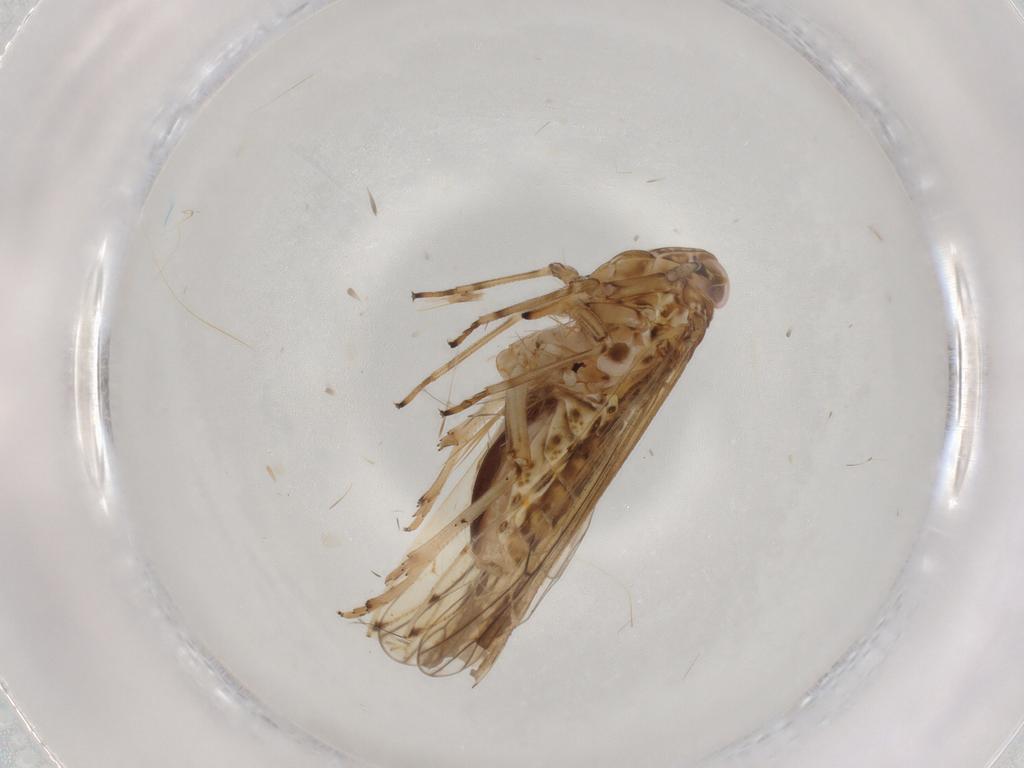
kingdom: Animalia
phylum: Arthropoda
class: Insecta
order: Hemiptera
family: Delphacidae
